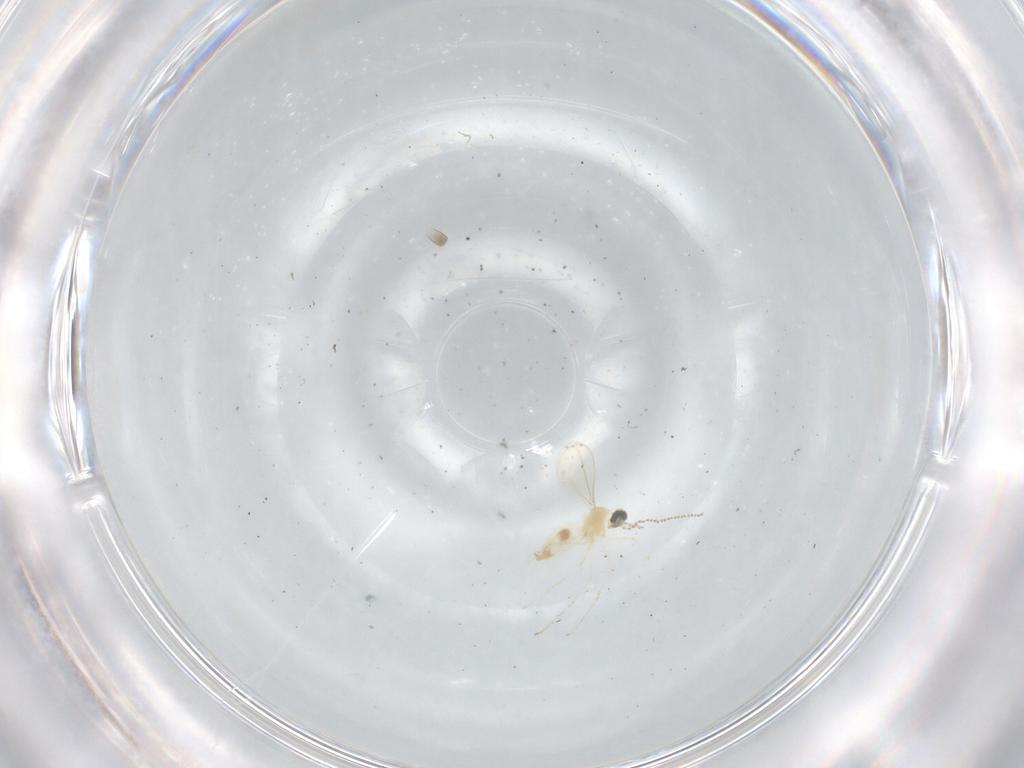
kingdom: Animalia
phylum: Arthropoda
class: Insecta
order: Diptera
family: Cecidomyiidae
